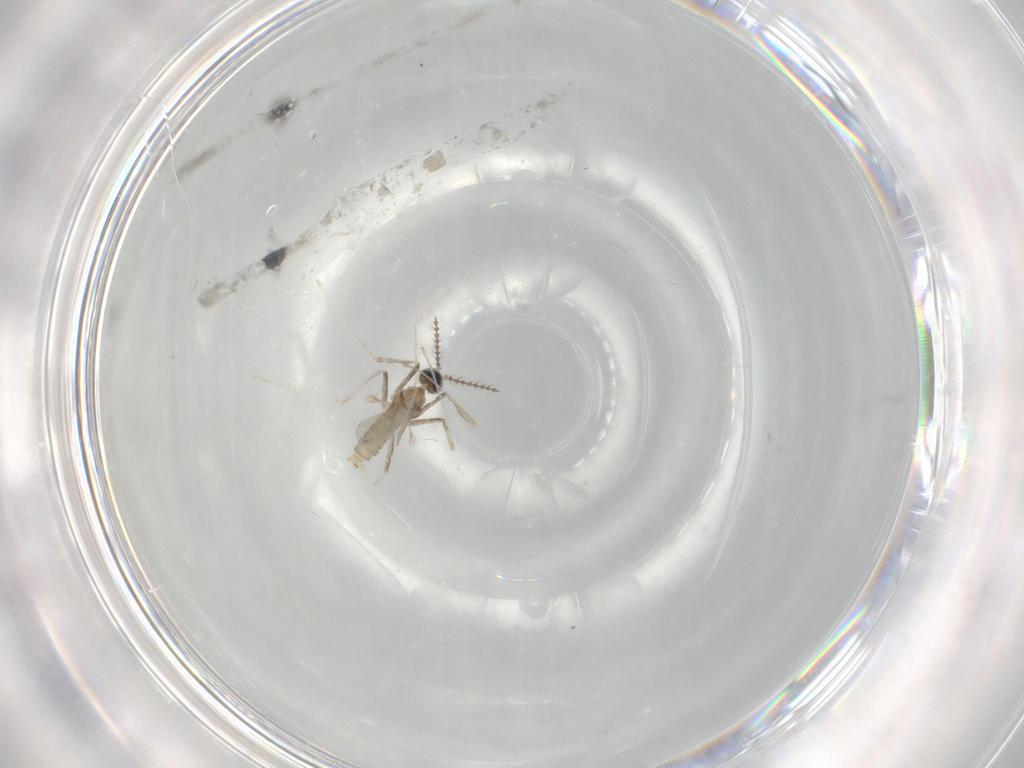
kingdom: Animalia
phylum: Arthropoda
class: Insecta
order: Diptera
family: Cecidomyiidae
